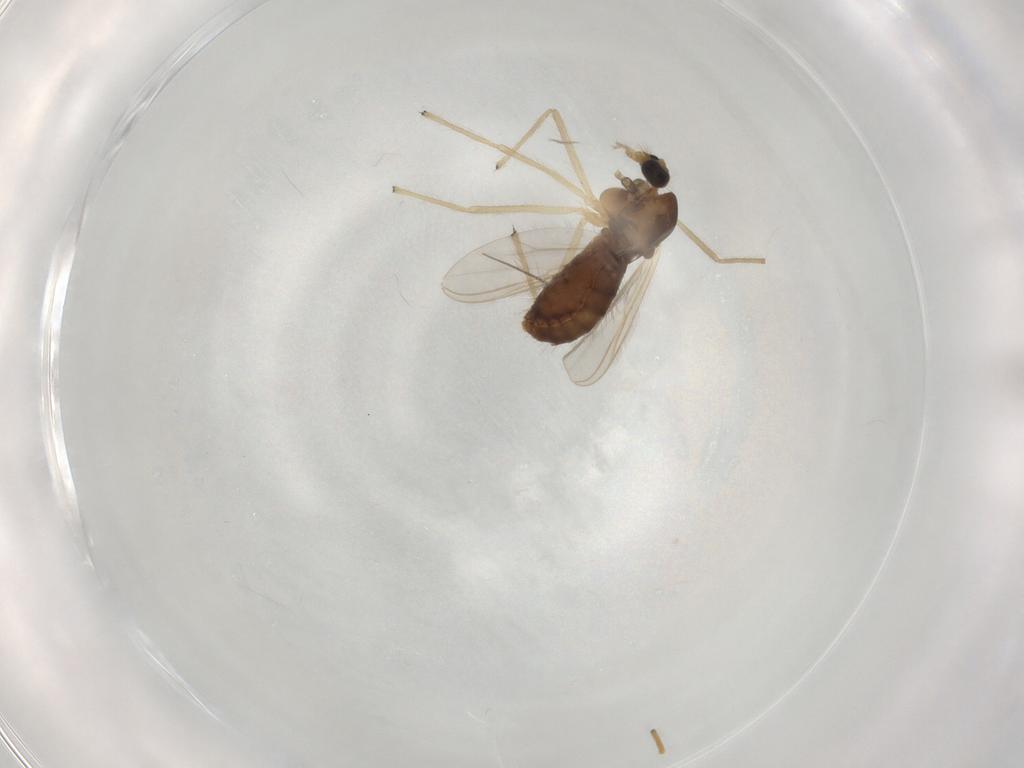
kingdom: Animalia
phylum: Arthropoda
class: Insecta
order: Diptera
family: Chironomidae
